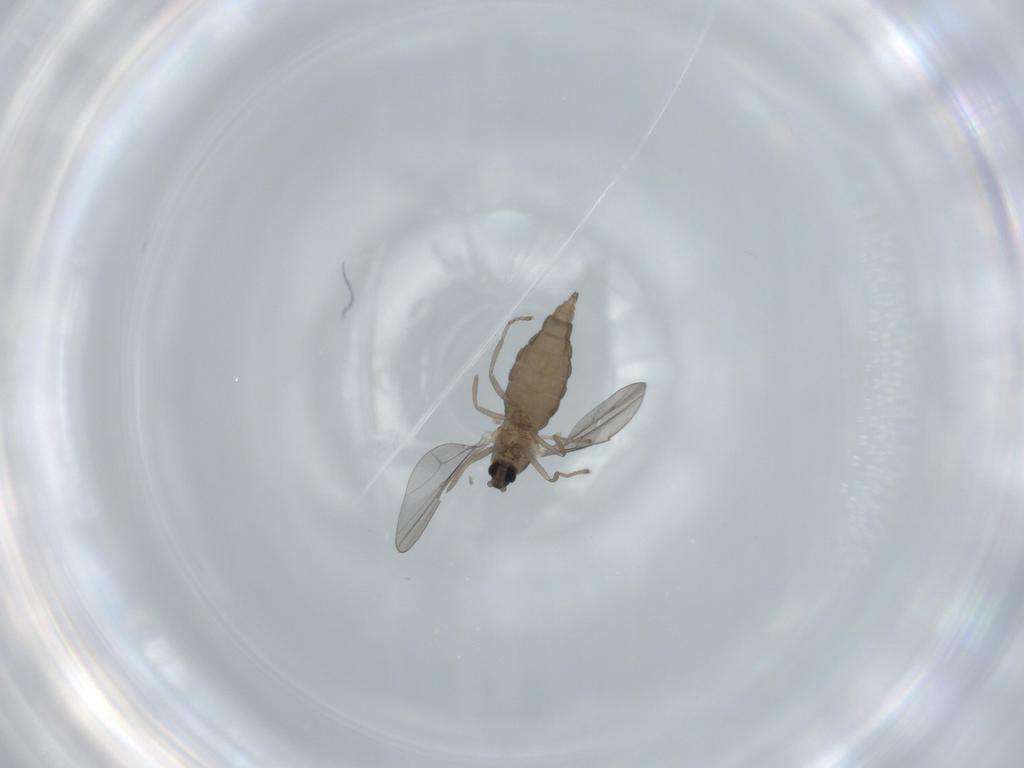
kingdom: Animalia
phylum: Arthropoda
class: Insecta
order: Diptera
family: Cecidomyiidae
